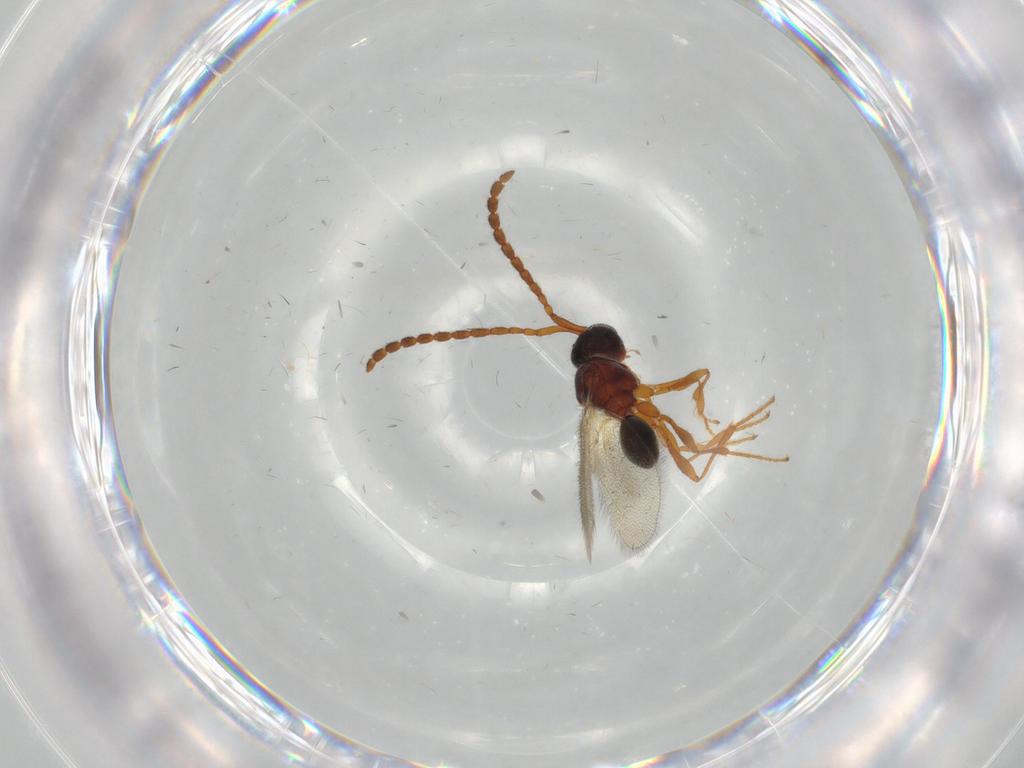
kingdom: Animalia
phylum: Arthropoda
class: Insecta
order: Hymenoptera
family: Diapriidae
